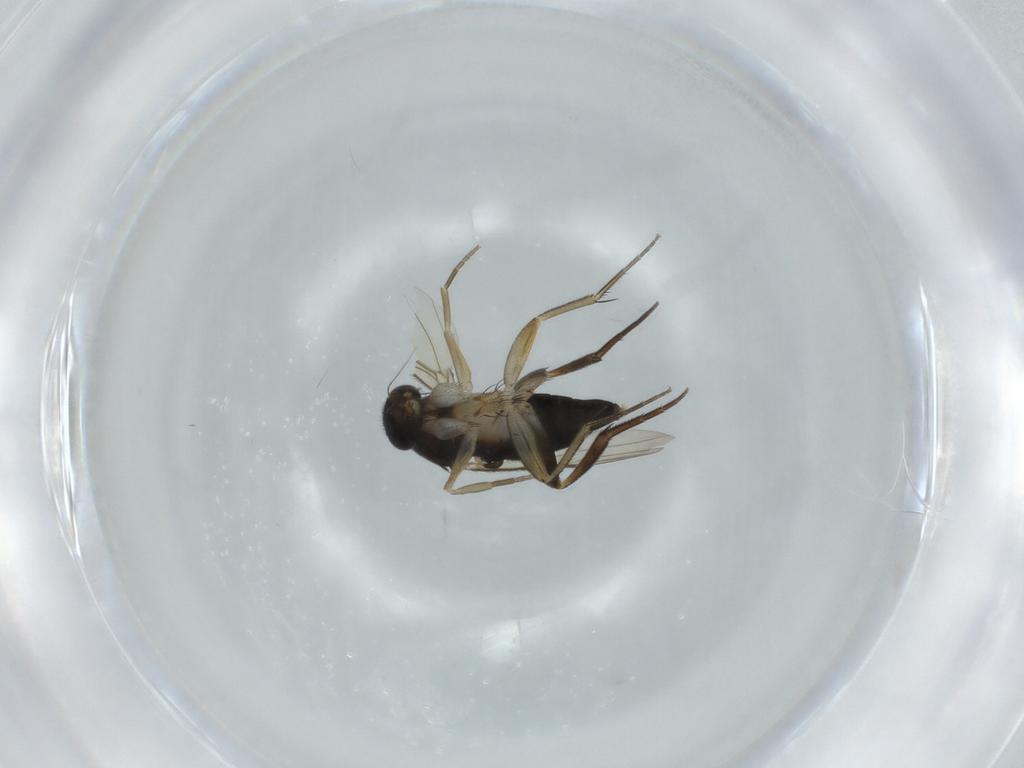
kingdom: Animalia
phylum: Arthropoda
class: Insecta
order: Diptera
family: Phoridae
